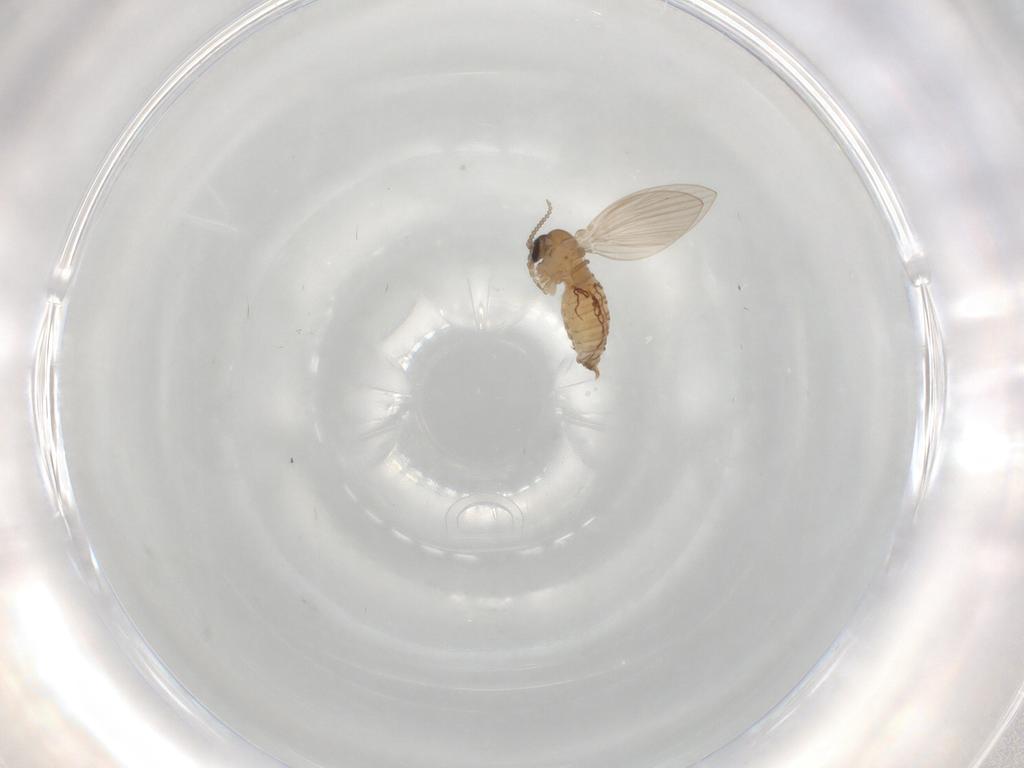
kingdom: Animalia
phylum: Arthropoda
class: Insecta
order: Diptera
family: Psychodidae
